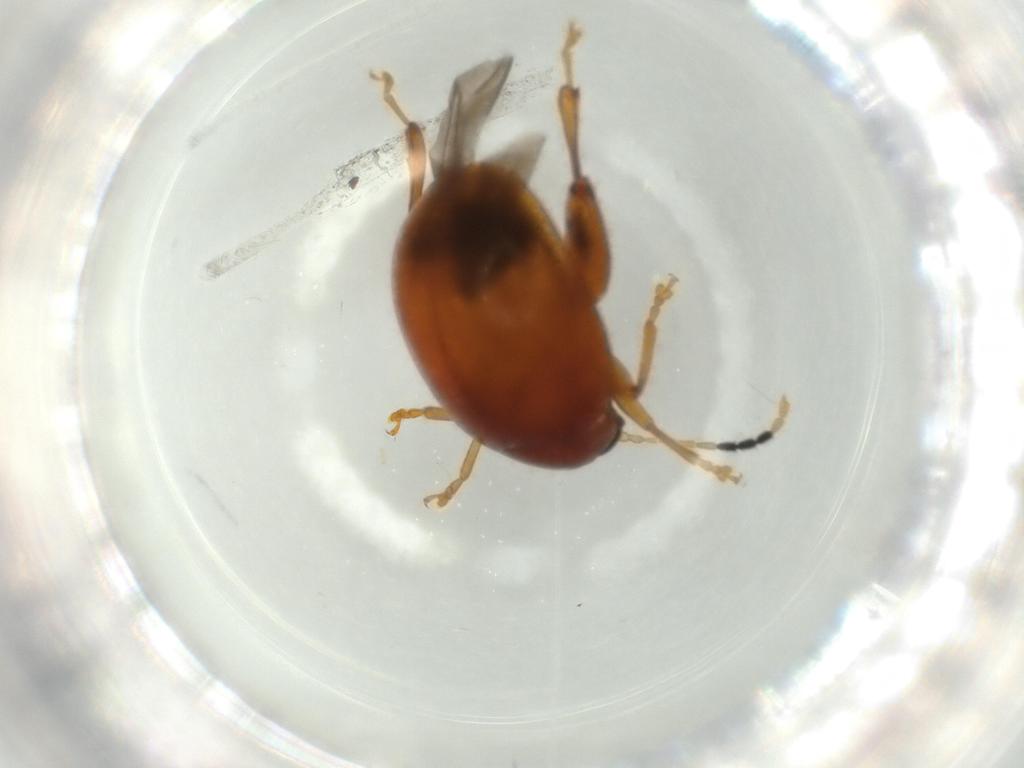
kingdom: Animalia
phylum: Arthropoda
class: Insecta
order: Coleoptera
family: Chrysomelidae
